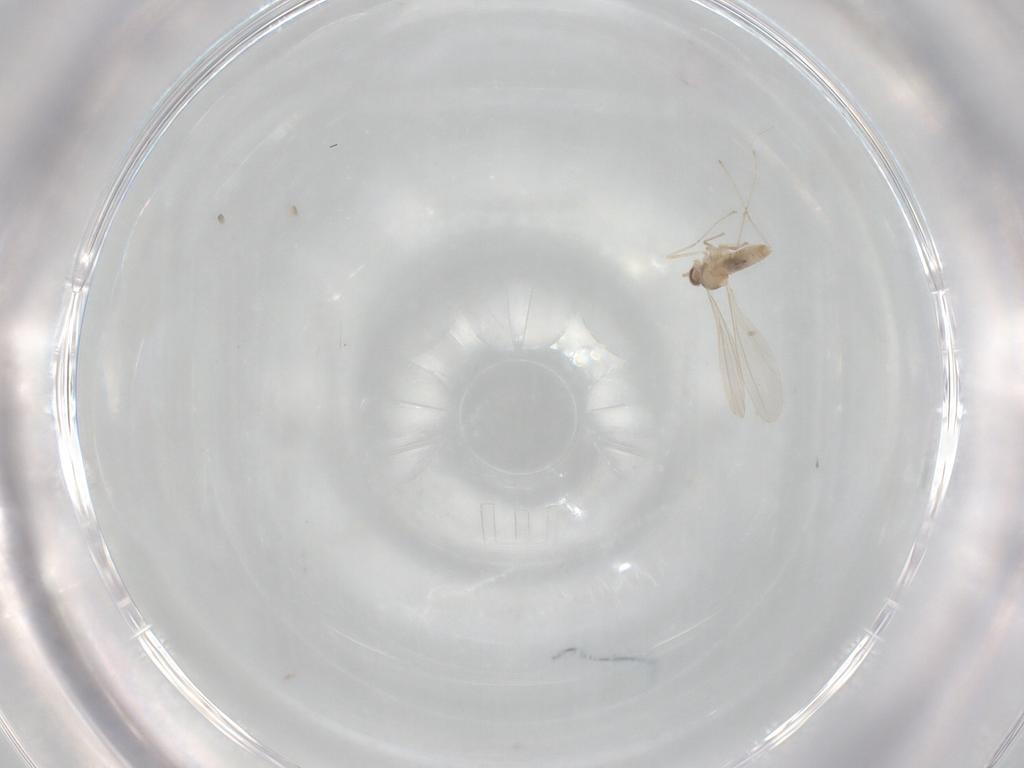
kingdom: Animalia
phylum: Arthropoda
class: Insecta
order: Diptera
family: Cecidomyiidae
